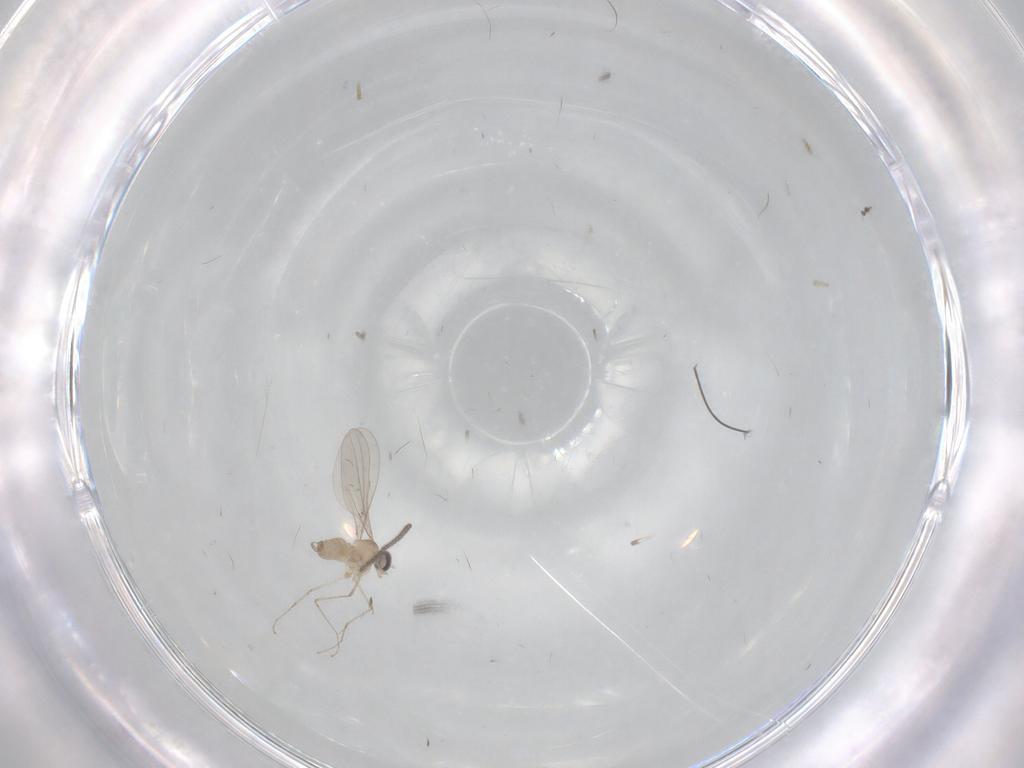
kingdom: Animalia
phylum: Arthropoda
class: Insecta
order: Diptera
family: Sciaridae
